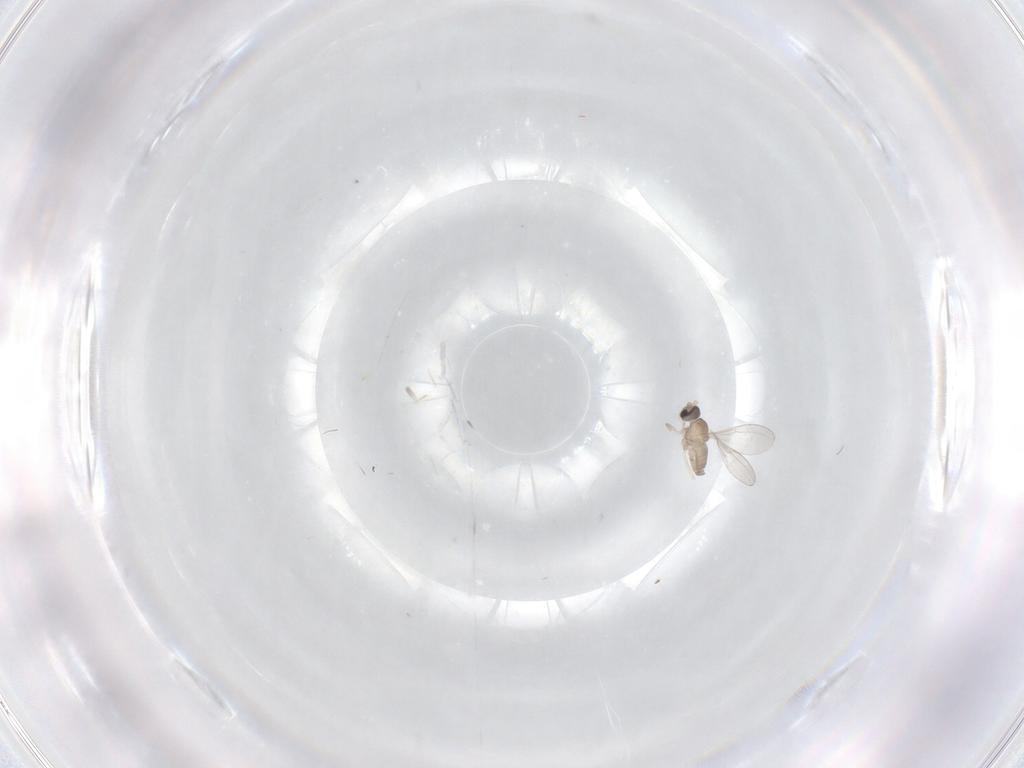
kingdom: Animalia
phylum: Arthropoda
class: Insecta
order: Diptera
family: Cecidomyiidae
